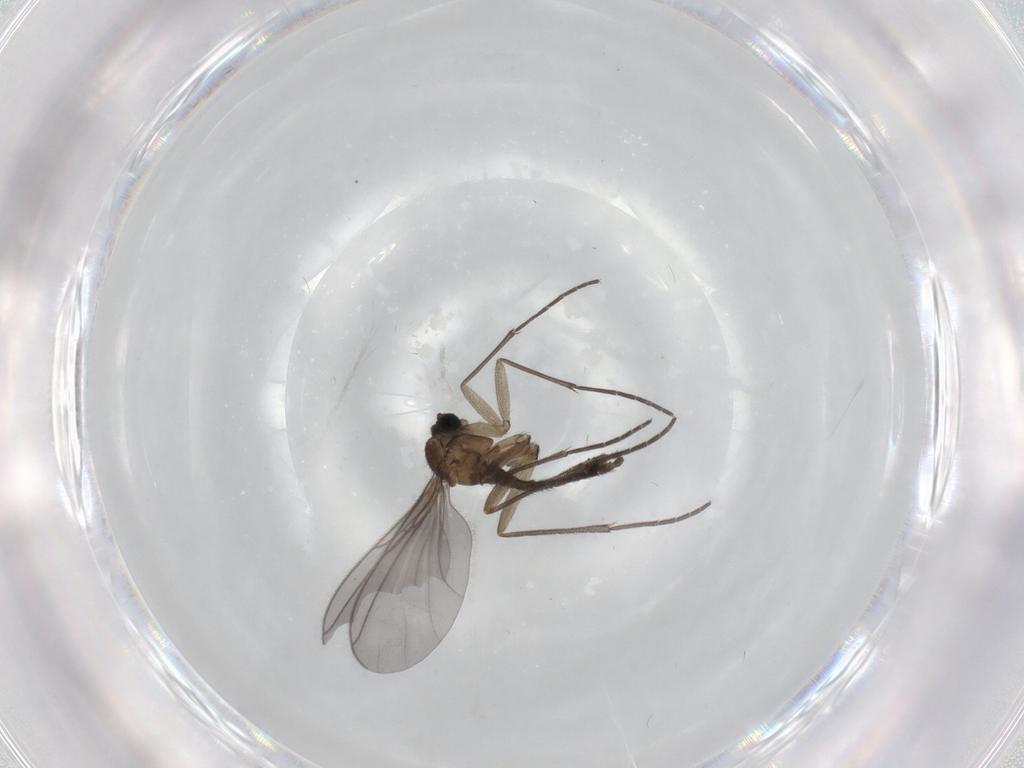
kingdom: Animalia
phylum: Arthropoda
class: Insecta
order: Diptera
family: Sciaridae
